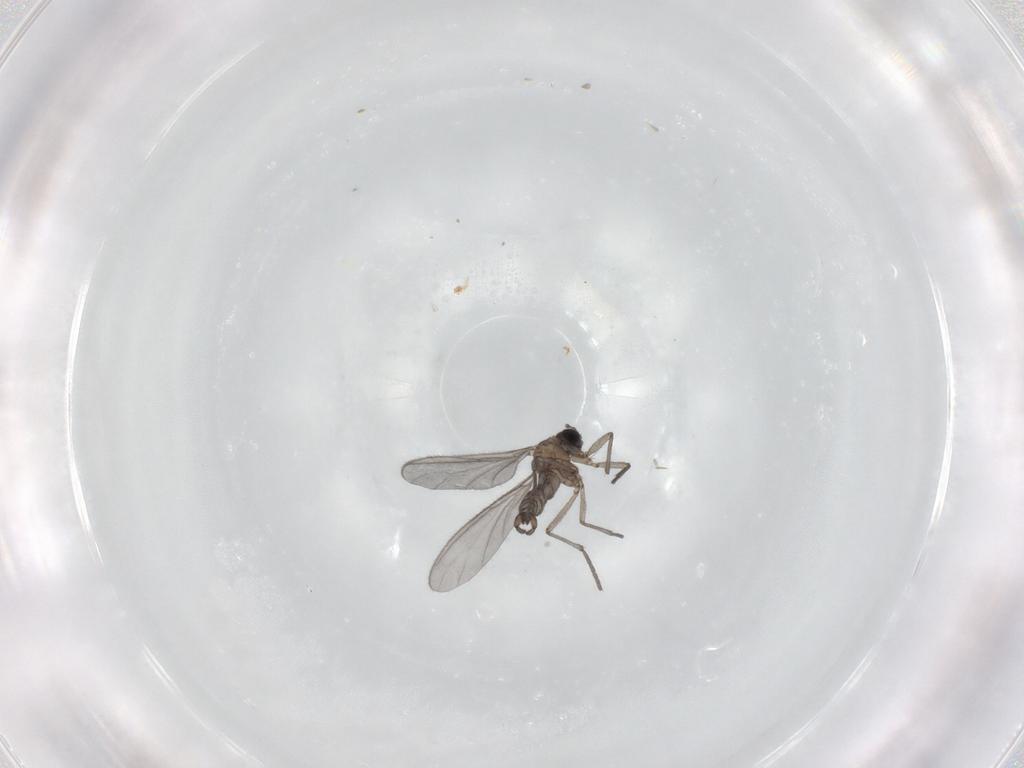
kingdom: Animalia
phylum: Arthropoda
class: Insecta
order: Diptera
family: Sciaridae
